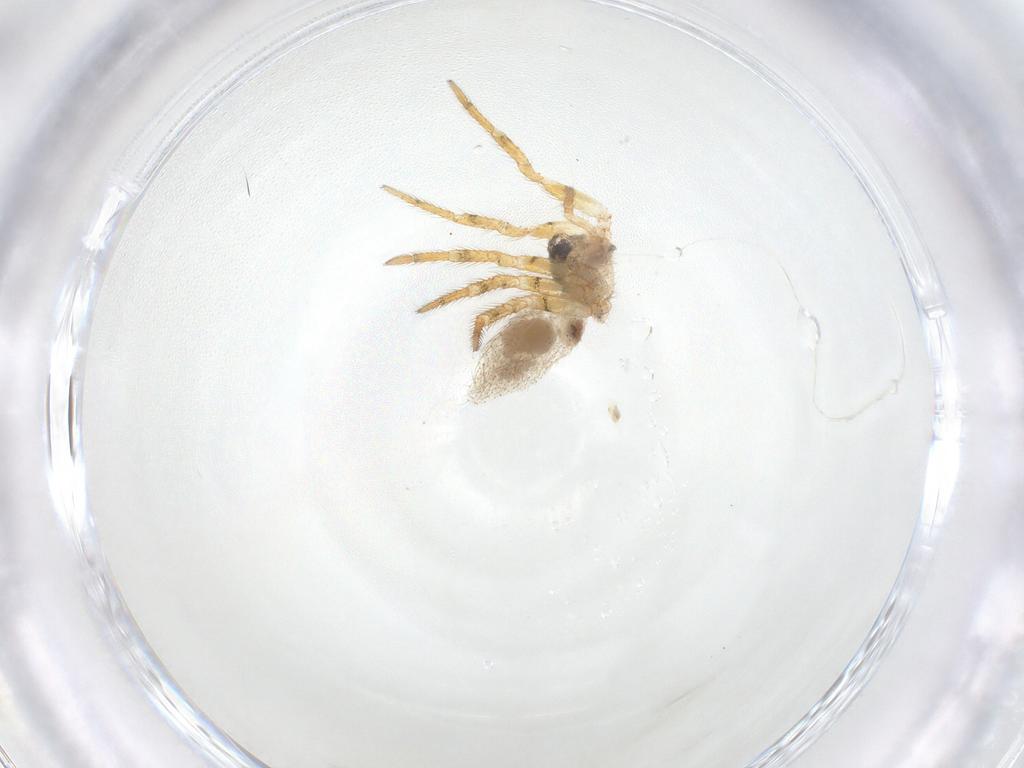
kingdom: Animalia
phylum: Arthropoda
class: Arachnida
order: Araneae
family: Theridiidae
